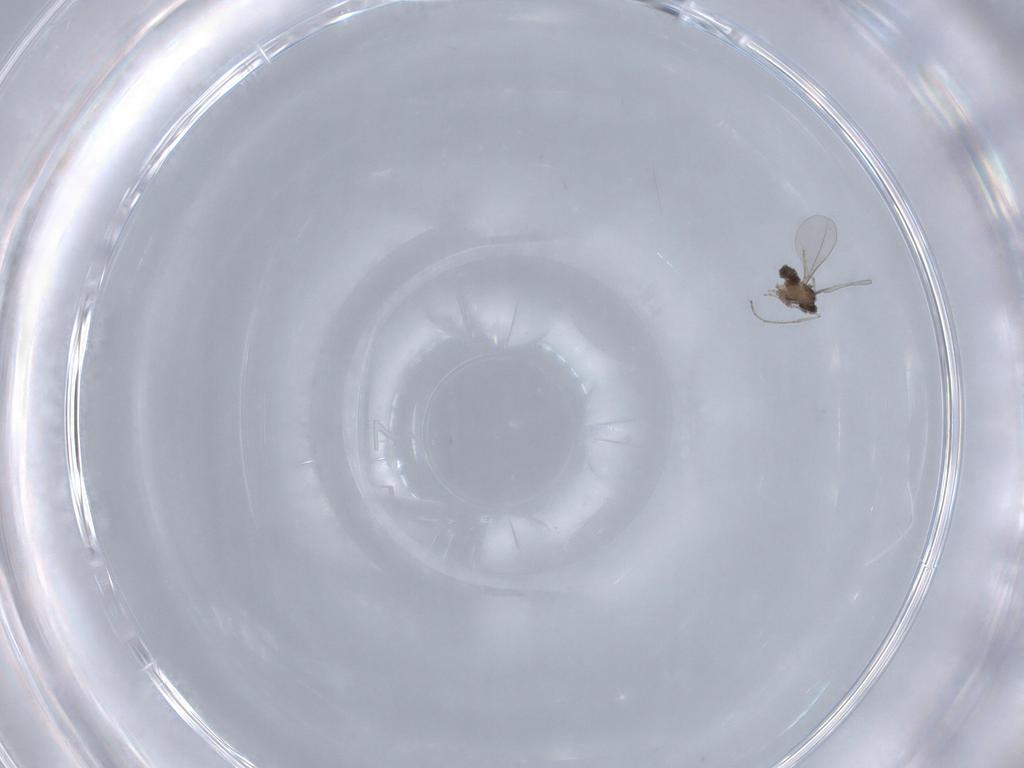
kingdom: Animalia
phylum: Arthropoda
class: Insecta
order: Diptera
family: Cecidomyiidae
